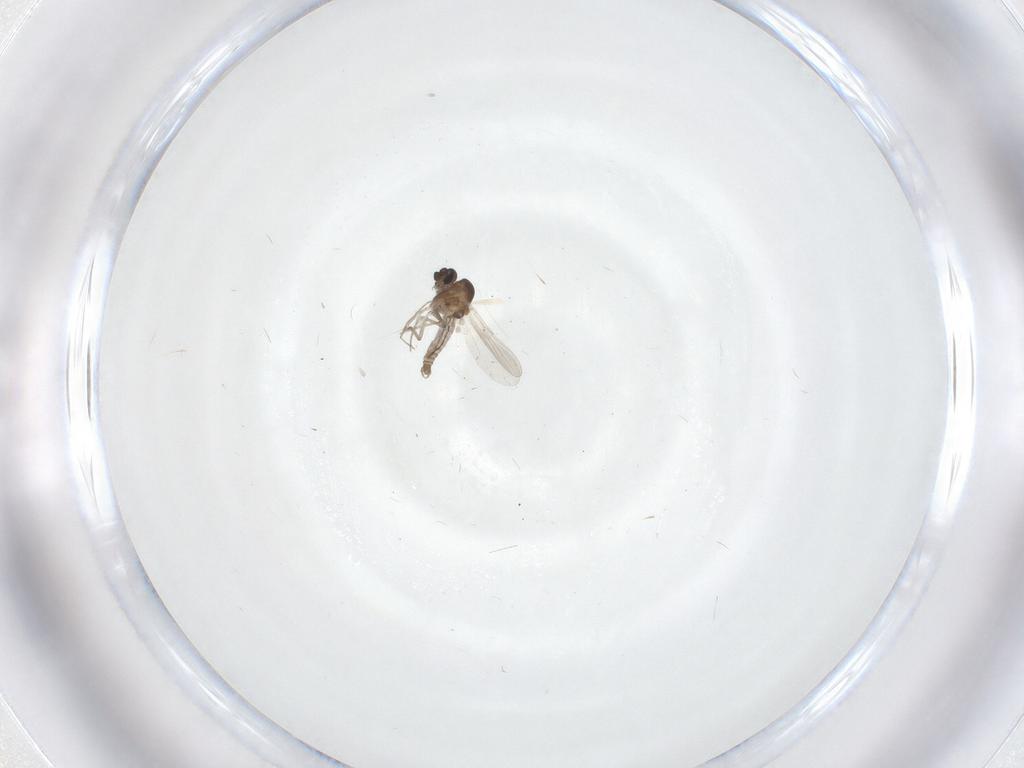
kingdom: Animalia
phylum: Arthropoda
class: Insecta
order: Diptera
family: Ceratopogonidae
